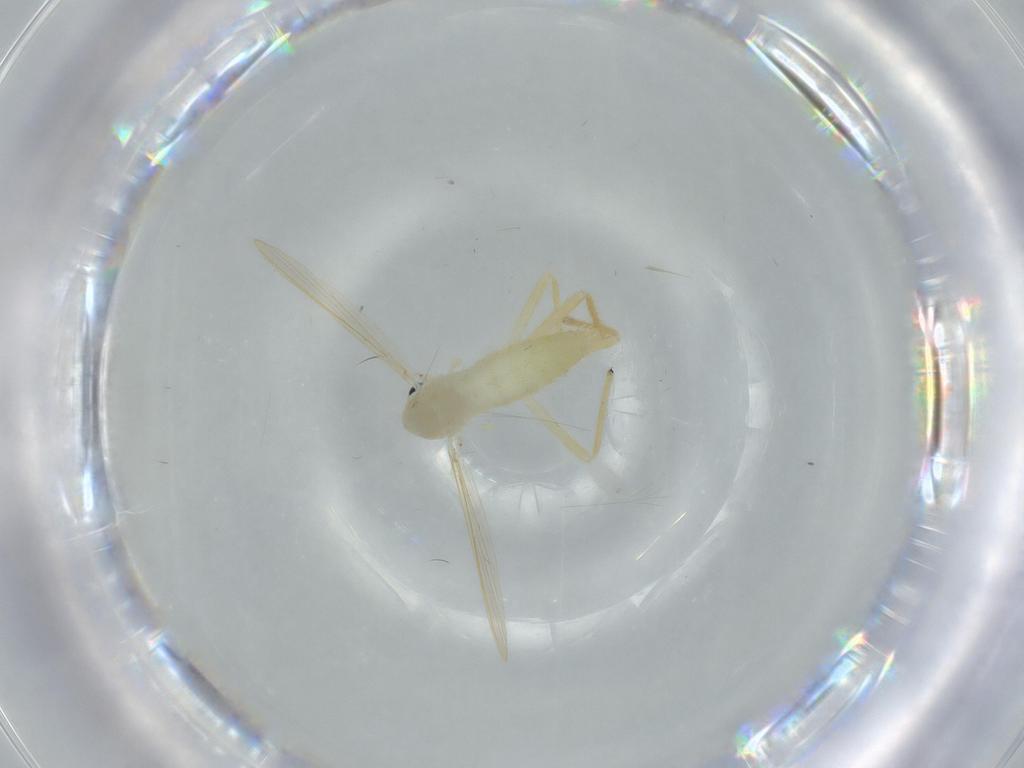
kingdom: Animalia
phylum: Arthropoda
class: Insecta
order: Diptera
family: Chironomidae
